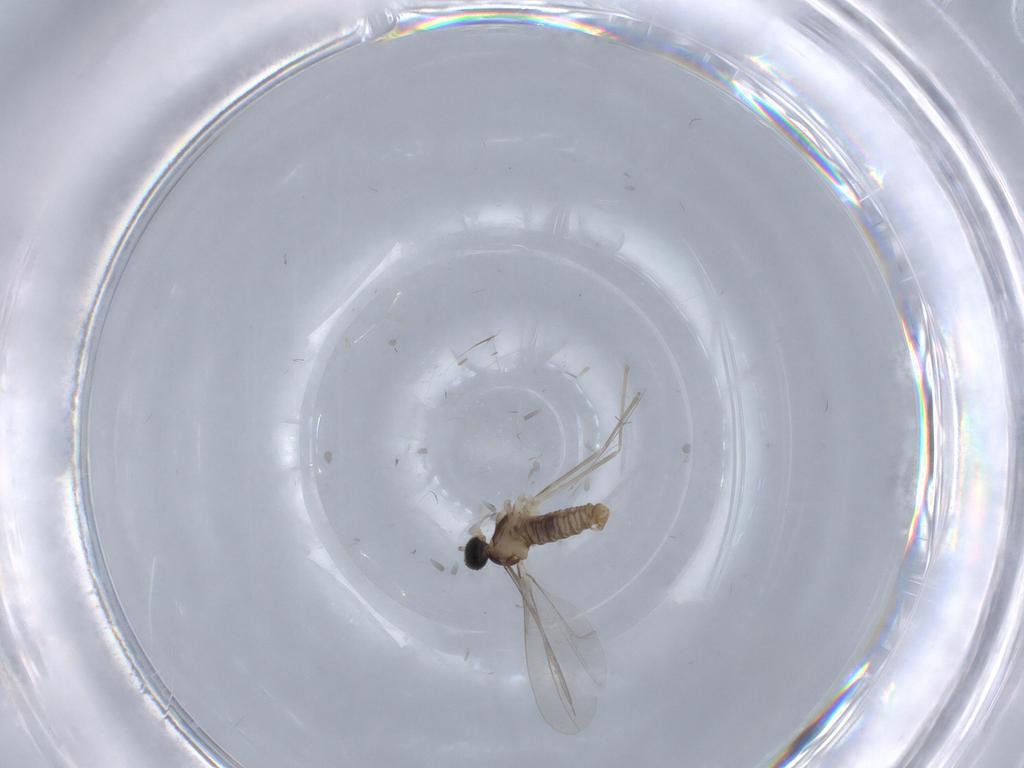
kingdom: Animalia
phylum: Arthropoda
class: Insecta
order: Diptera
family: Cecidomyiidae
